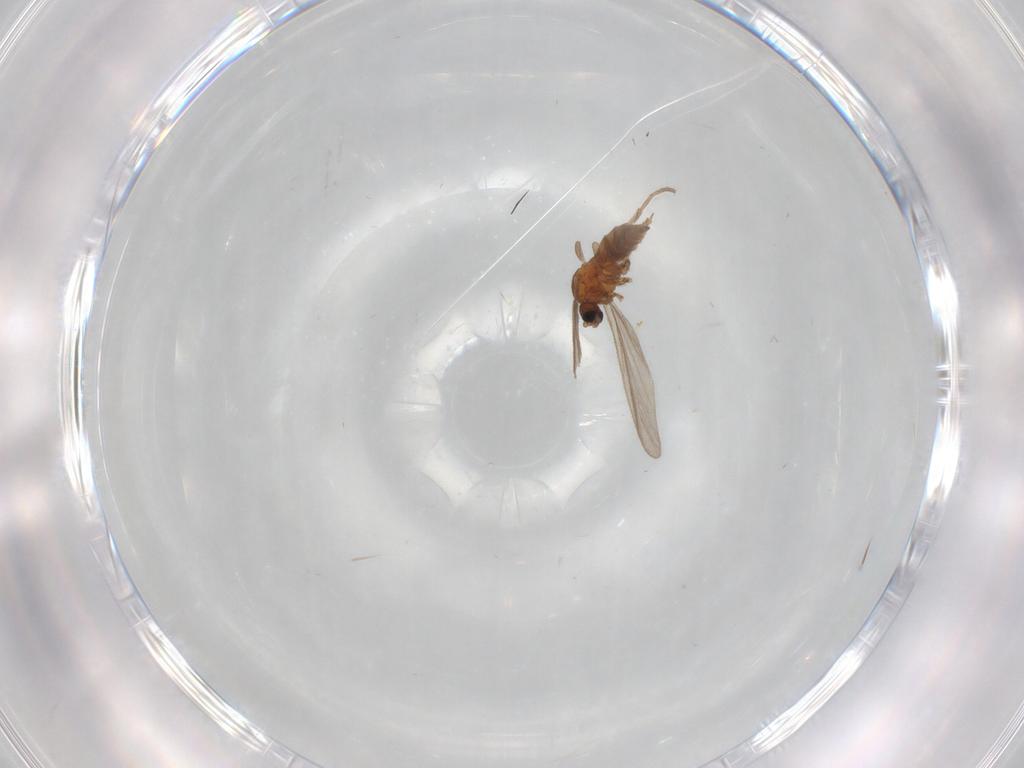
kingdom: Animalia
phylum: Arthropoda
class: Insecta
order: Diptera
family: Sciaridae
